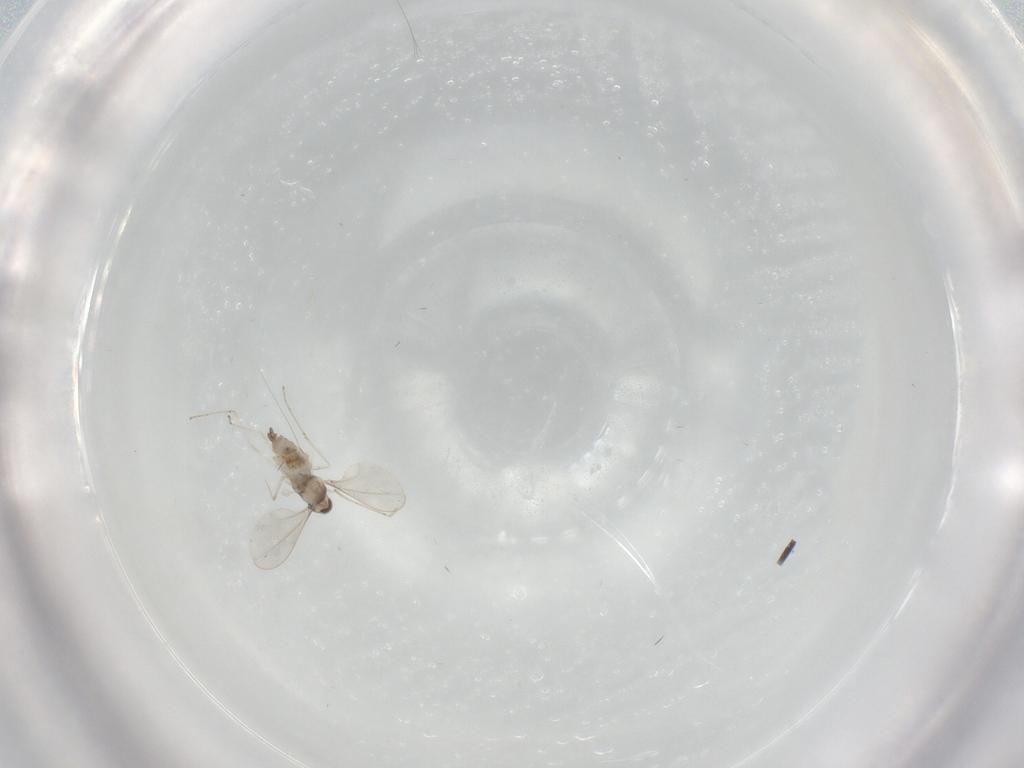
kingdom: Animalia
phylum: Arthropoda
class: Insecta
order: Diptera
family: Cecidomyiidae
